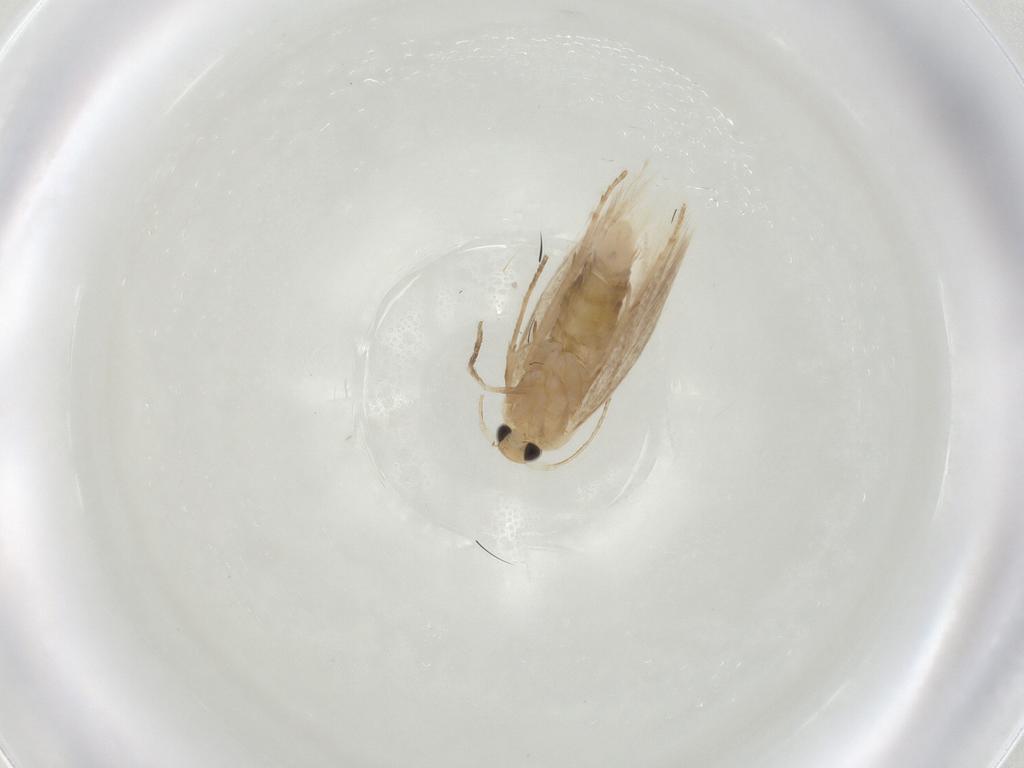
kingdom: Animalia
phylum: Arthropoda
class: Insecta
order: Lepidoptera
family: Lyonetiidae
